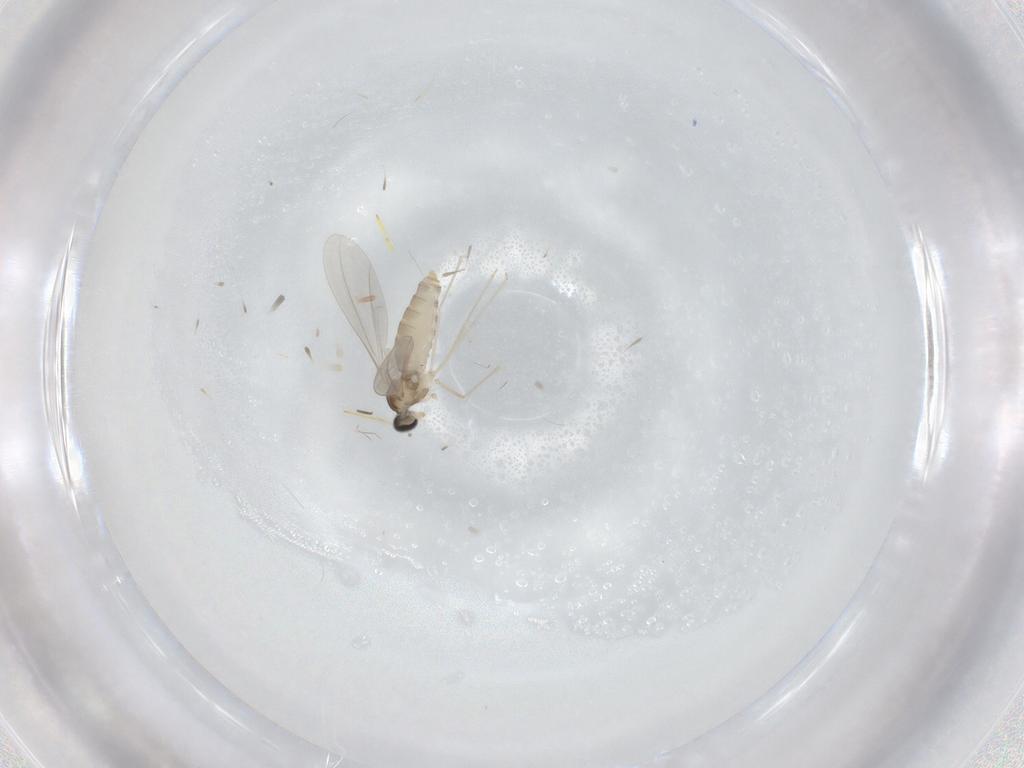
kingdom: Animalia
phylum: Arthropoda
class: Insecta
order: Diptera
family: Cecidomyiidae
